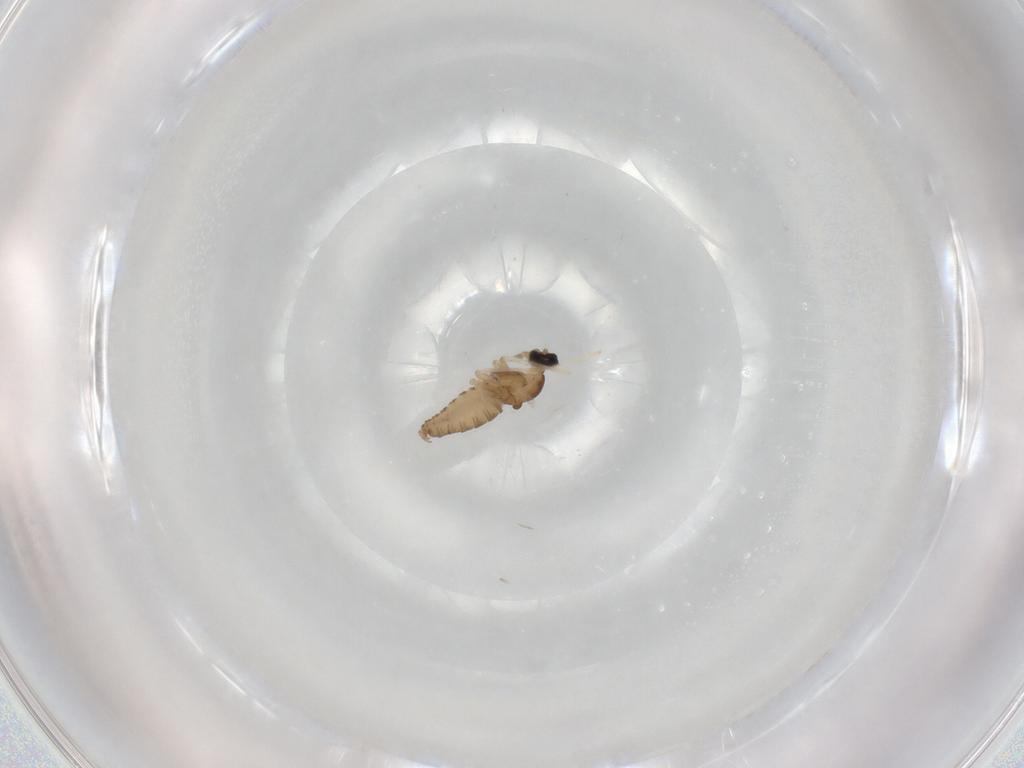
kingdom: Animalia
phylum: Arthropoda
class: Insecta
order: Diptera
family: Cecidomyiidae
